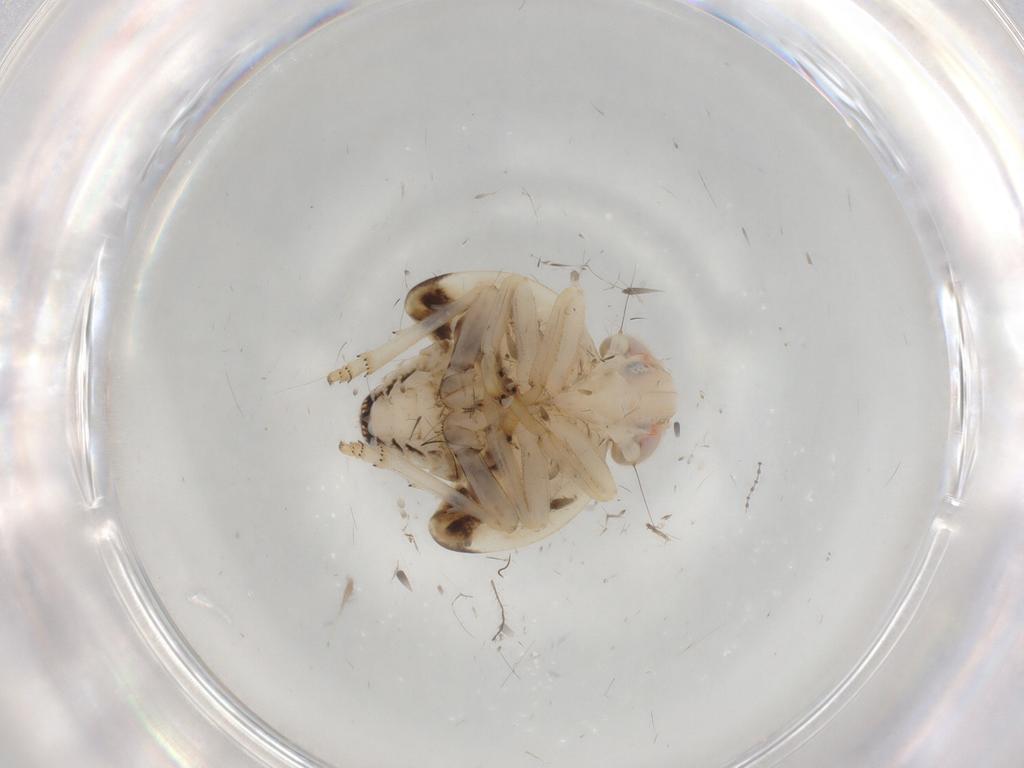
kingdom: Animalia
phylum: Arthropoda
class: Insecta
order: Hemiptera
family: Nogodinidae
